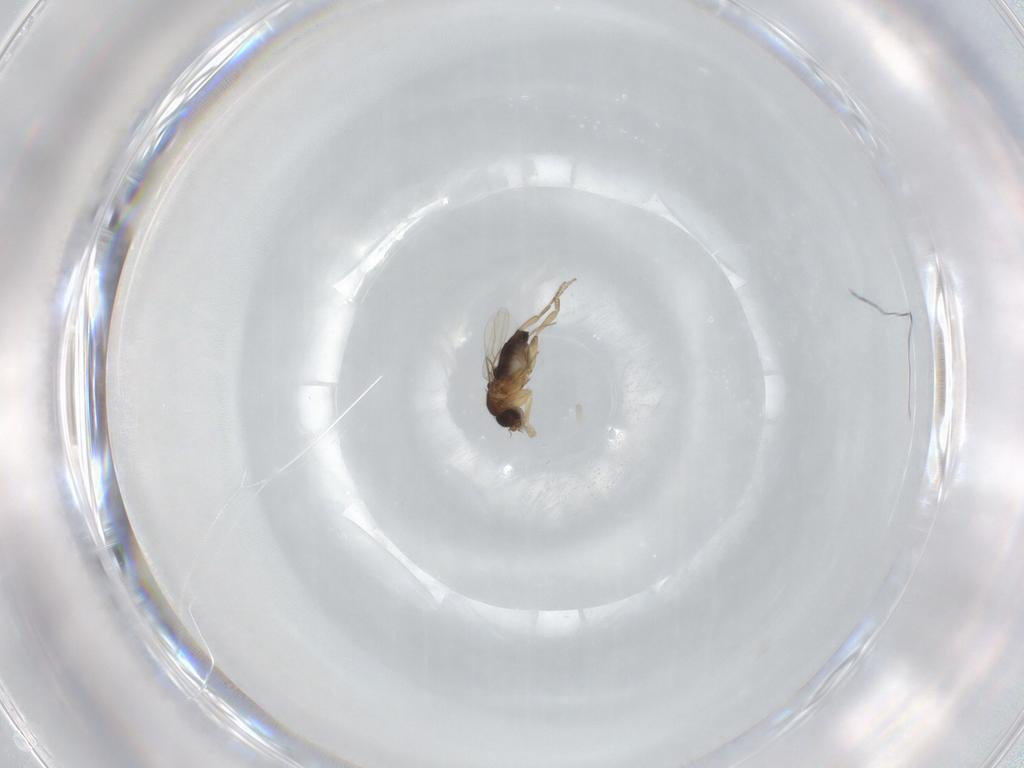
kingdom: Animalia
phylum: Arthropoda
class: Insecta
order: Diptera
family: Phoridae
